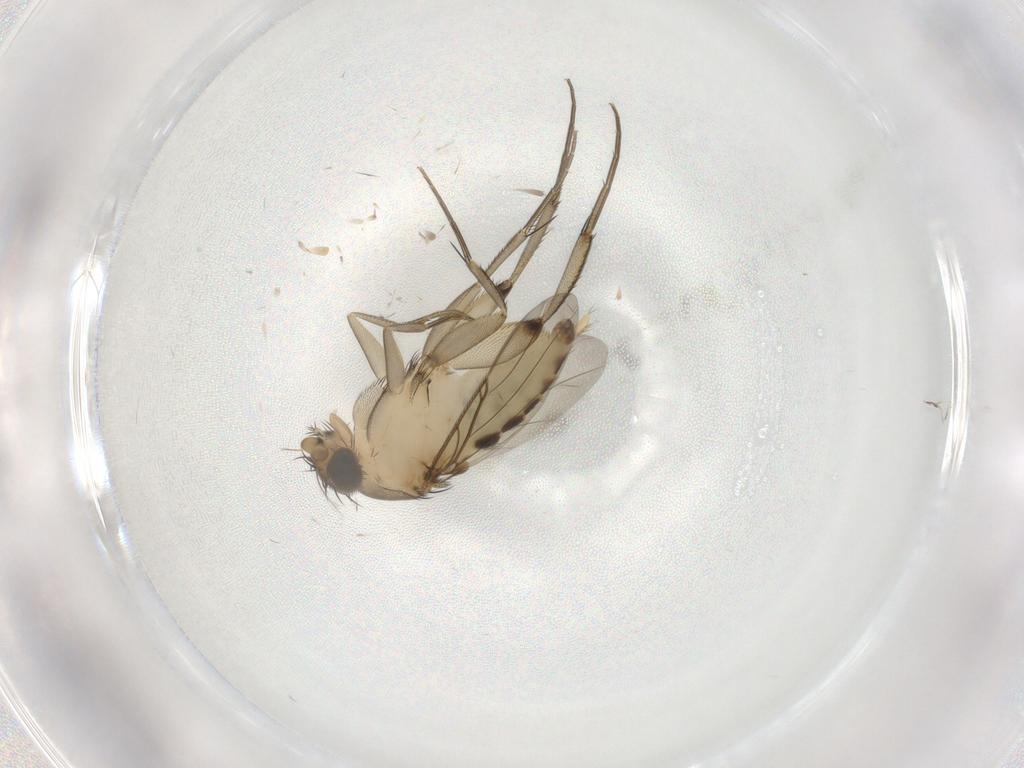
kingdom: Animalia
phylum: Arthropoda
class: Insecta
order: Diptera
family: Phoridae
